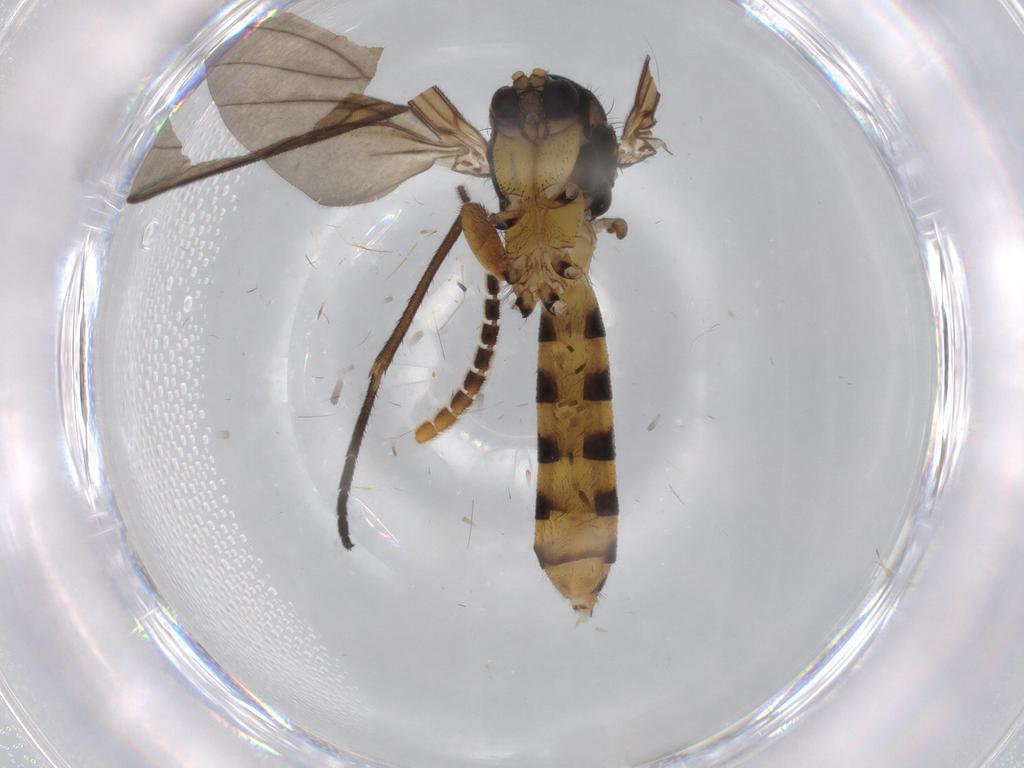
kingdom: Animalia
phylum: Arthropoda
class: Insecta
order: Diptera
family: Mycetophilidae
